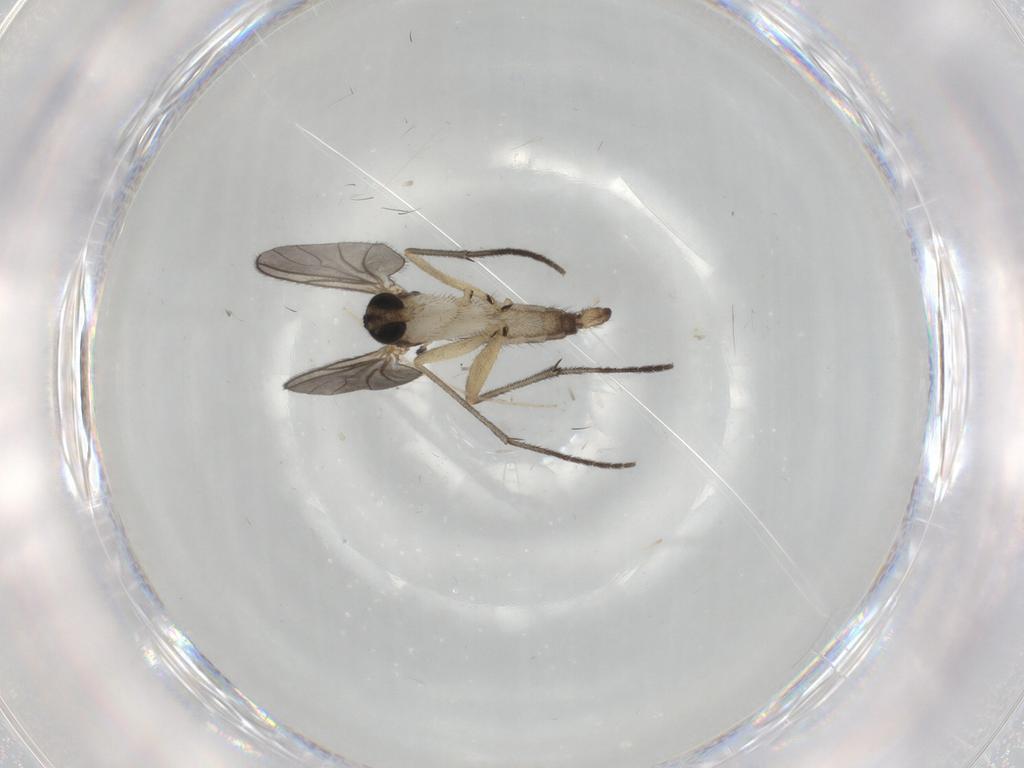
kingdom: Animalia
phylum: Arthropoda
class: Insecta
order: Diptera
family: Sciaridae
